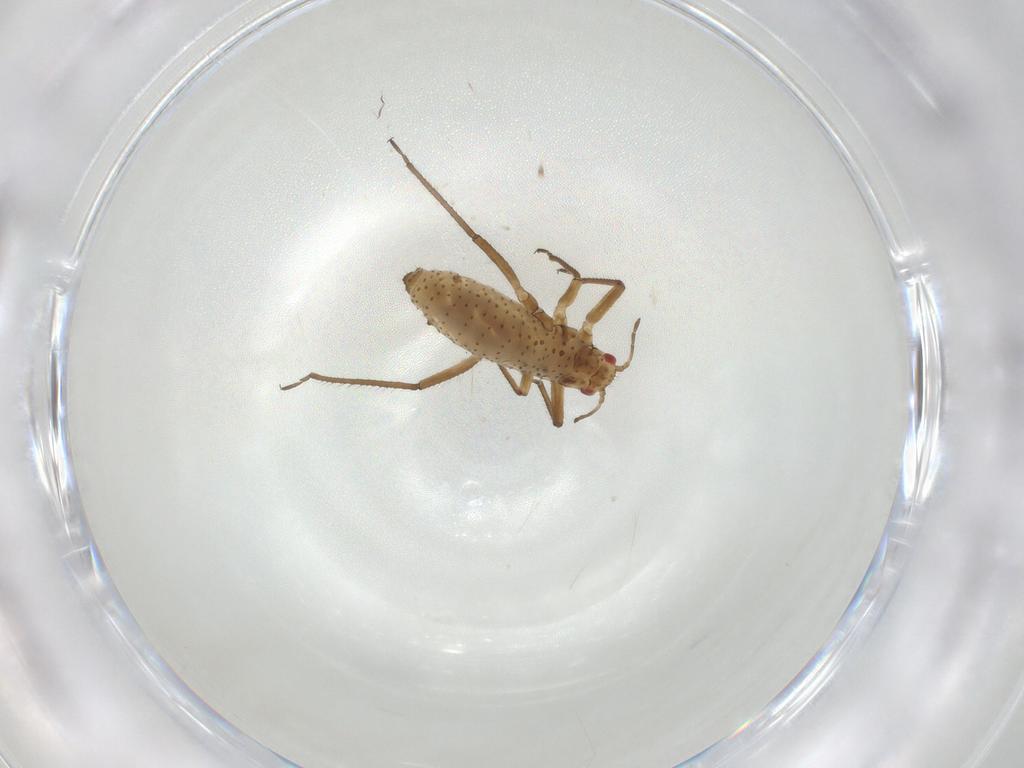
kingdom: Animalia
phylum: Arthropoda
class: Insecta
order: Hemiptera
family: Aphididae
